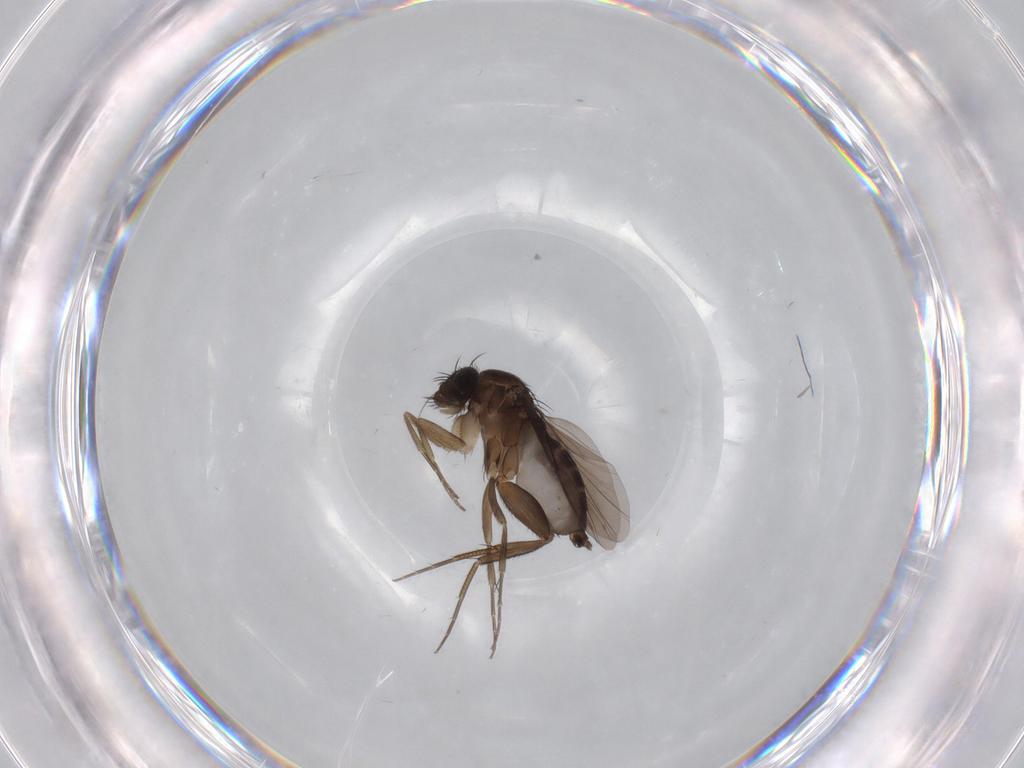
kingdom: Animalia
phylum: Arthropoda
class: Insecta
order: Diptera
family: Phoridae
